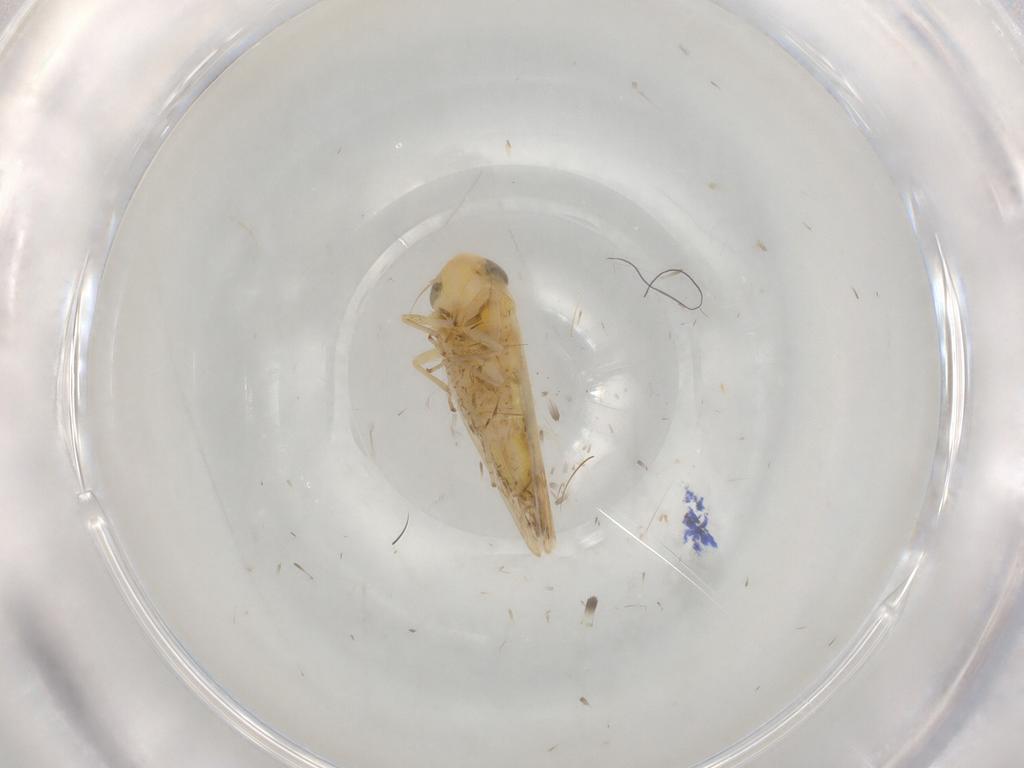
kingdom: Animalia
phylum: Arthropoda
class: Insecta
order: Hemiptera
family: Cicadellidae
